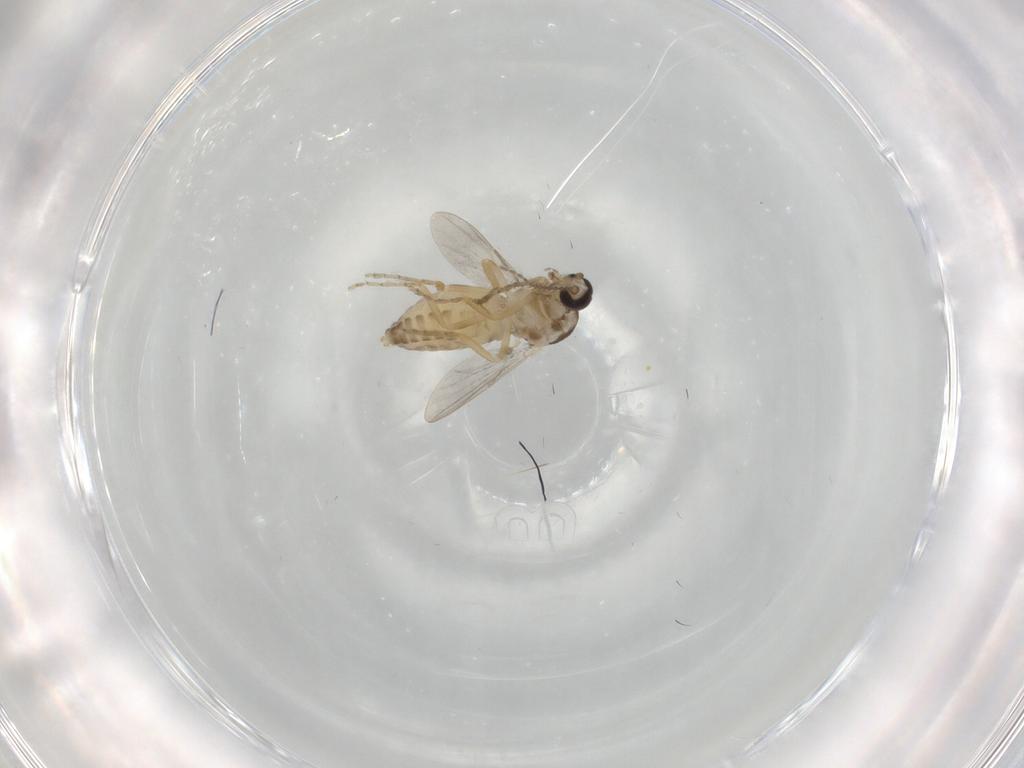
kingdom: Animalia
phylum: Arthropoda
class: Insecta
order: Diptera
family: Ceratopogonidae
